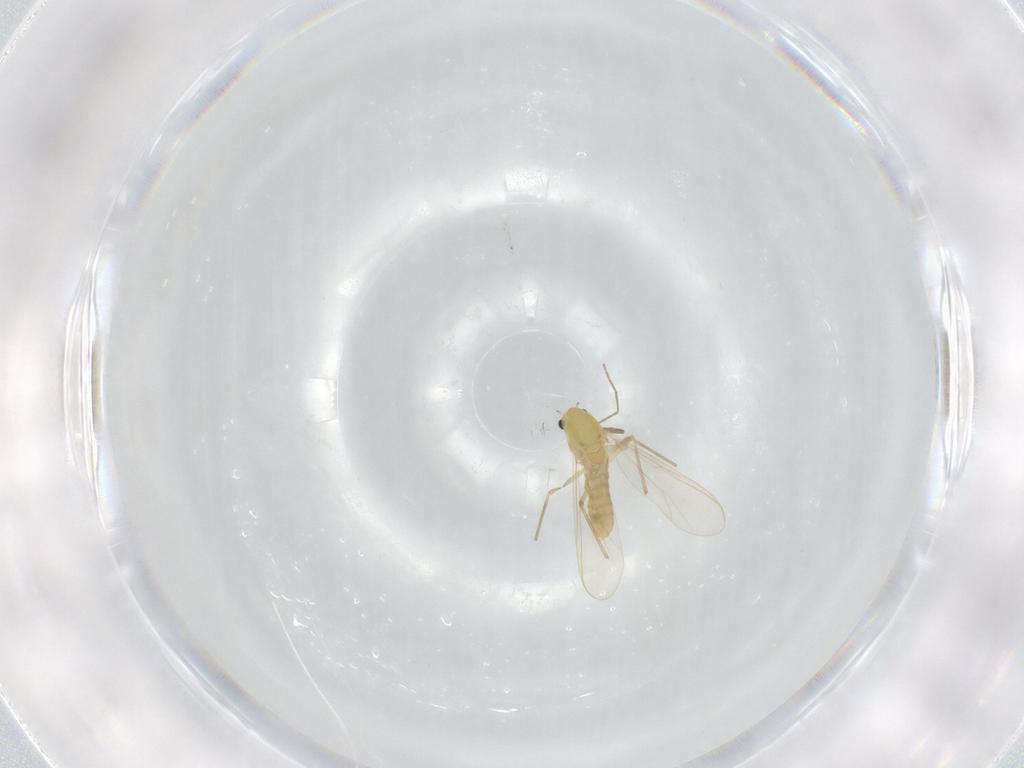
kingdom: Animalia
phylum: Arthropoda
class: Insecta
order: Diptera
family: Chironomidae
